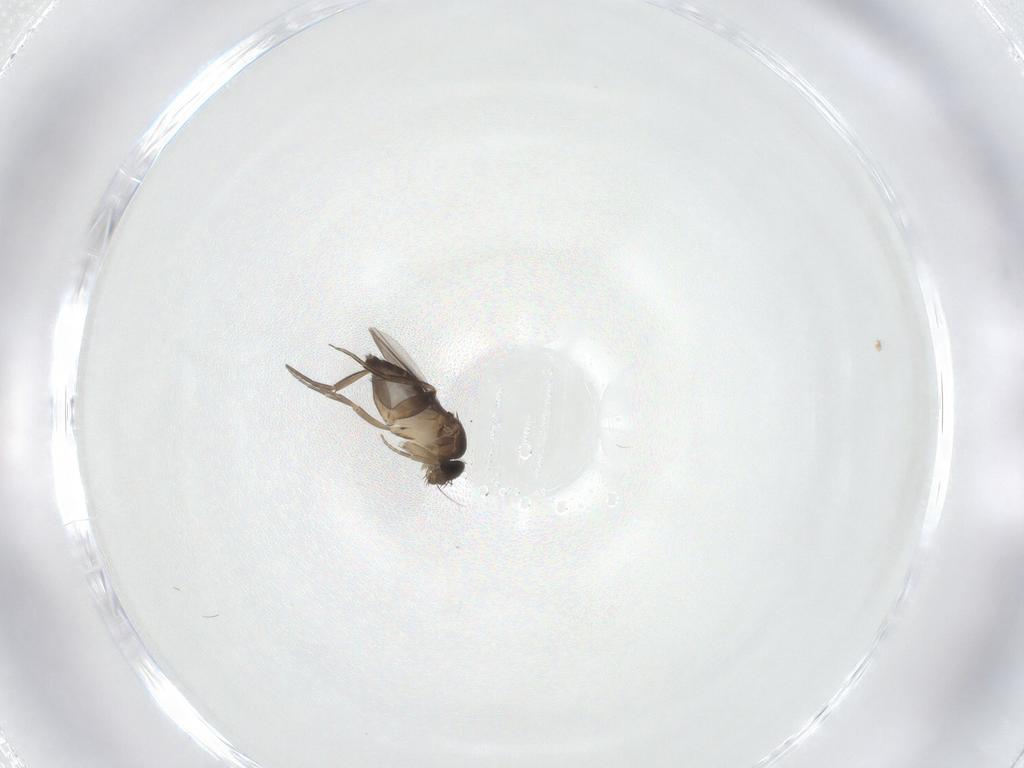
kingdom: Animalia
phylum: Arthropoda
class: Insecta
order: Diptera
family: Phoridae
